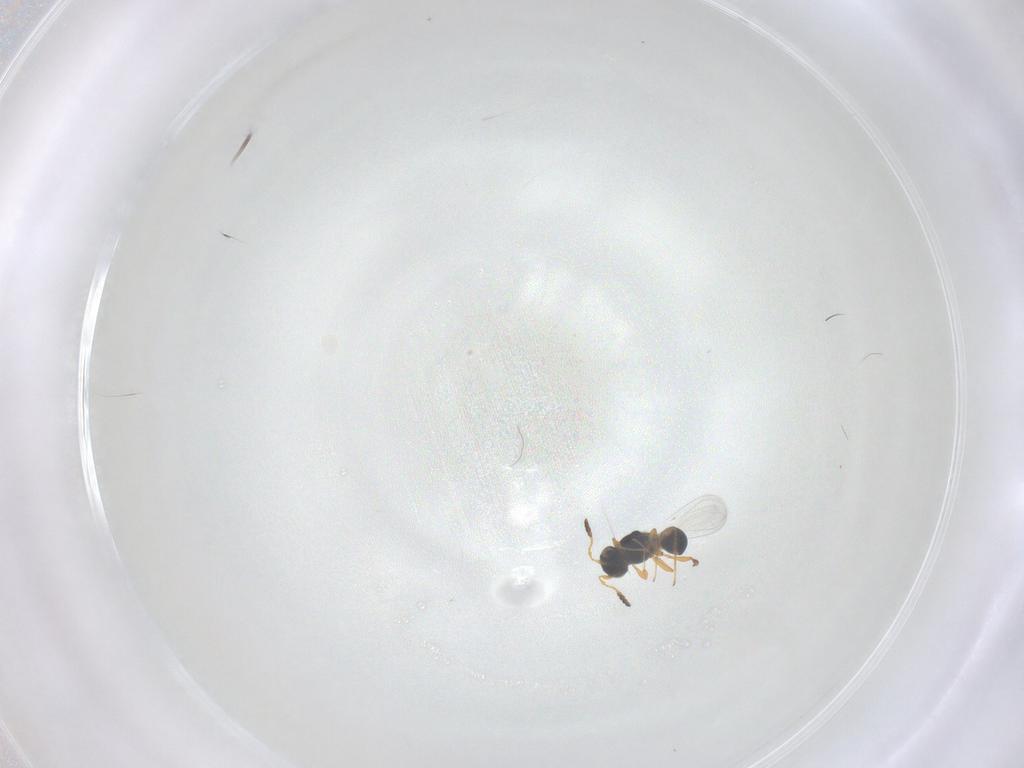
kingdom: Animalia
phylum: Arthropoda
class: Insecta
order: Hymenoptera
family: Platygastridae
